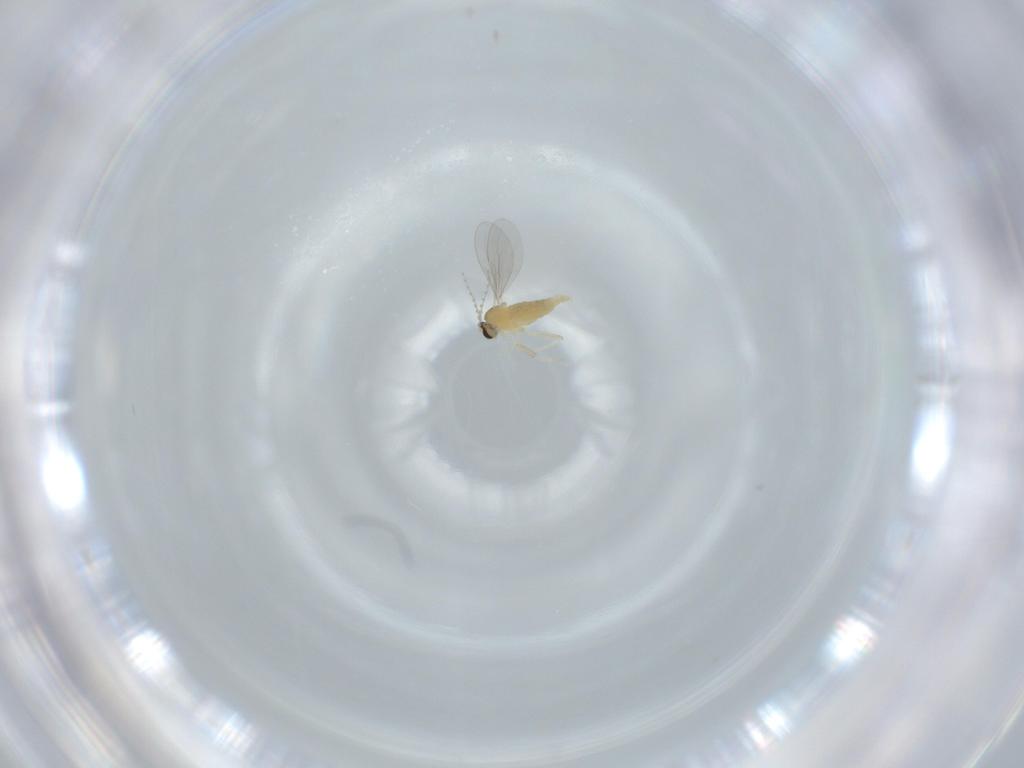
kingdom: Animalia
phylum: Arthropoda
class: Insecta
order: Diptera
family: Cecidomyiidae
